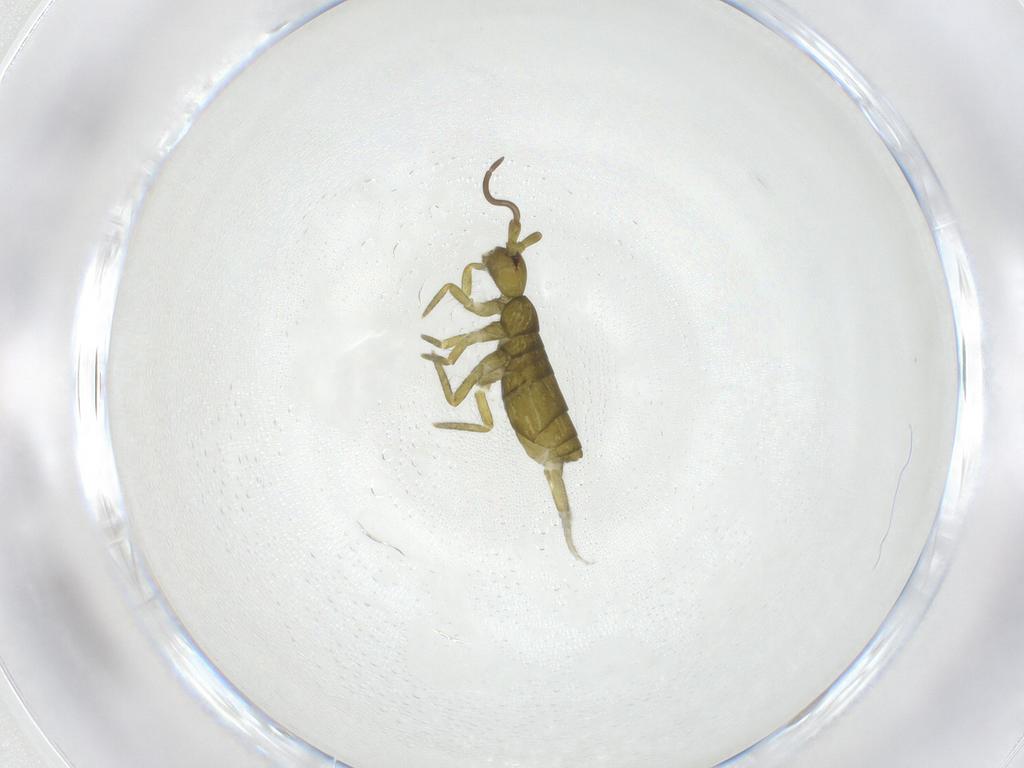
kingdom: Animalia
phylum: Arthropoda
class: Collembola
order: Entomobryomorpha
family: Tomoceridae
